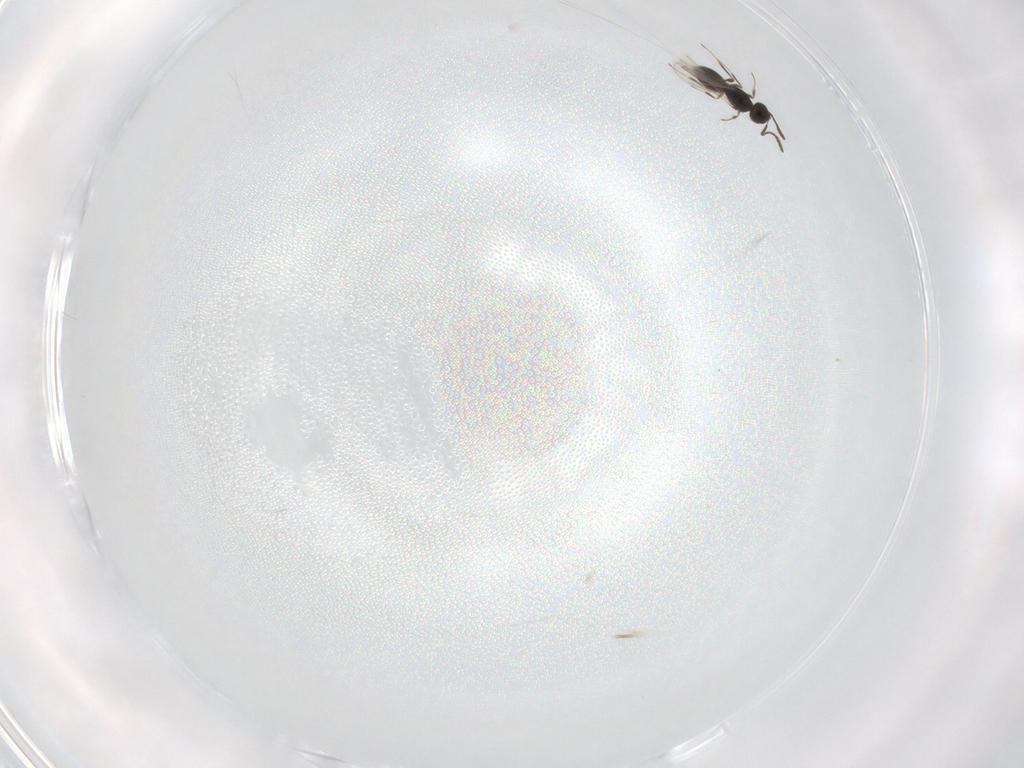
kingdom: Animalia
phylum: Arthropoda
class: Insecta
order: Hymenoptera
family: Scelionidae
